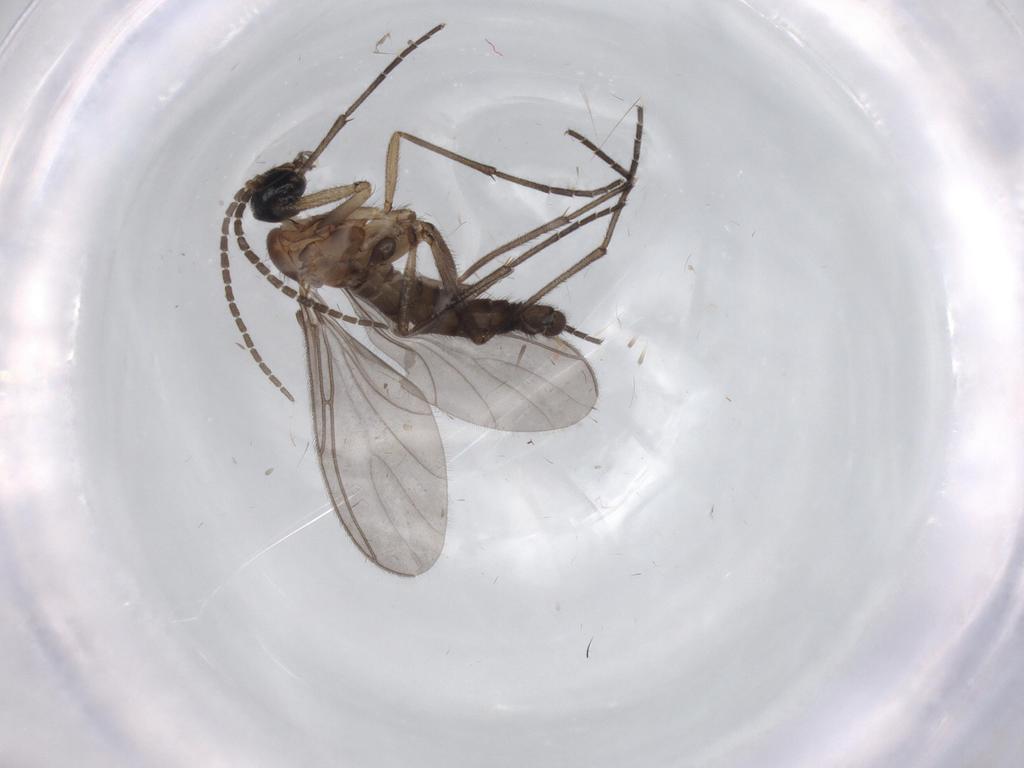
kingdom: Animalia
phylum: Arthropoda
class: Insecta
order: Diptera
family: Sciaridae
